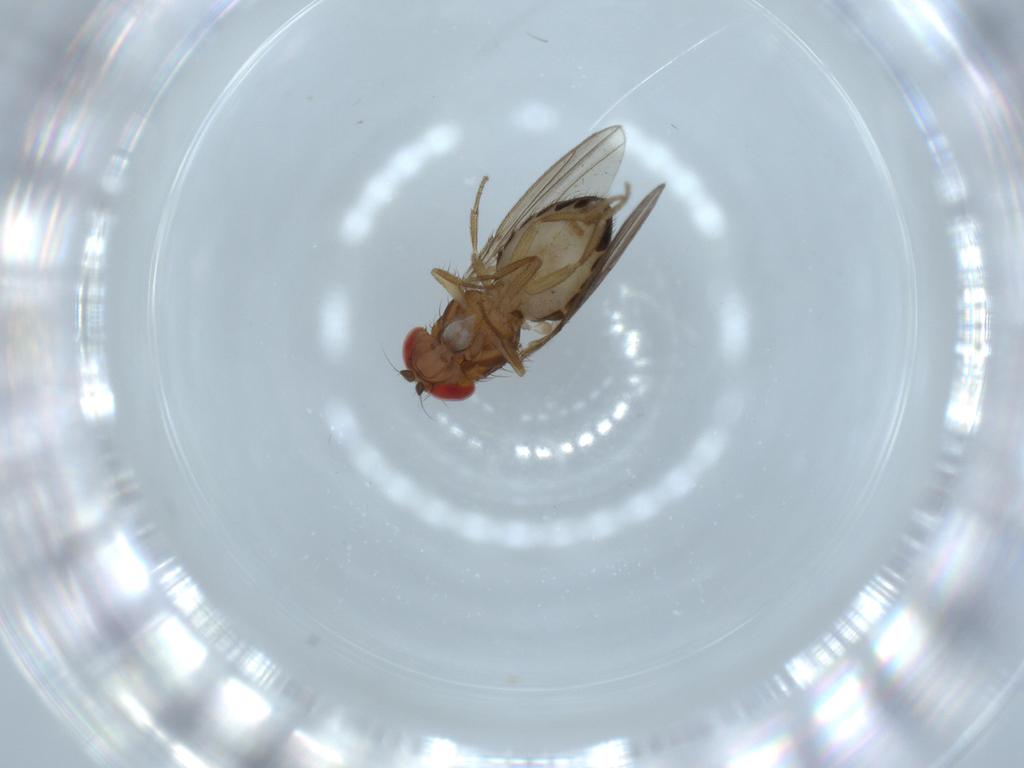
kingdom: Animalia
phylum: Arthropoda
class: Insecta
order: Diptera
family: Drosophilidae
